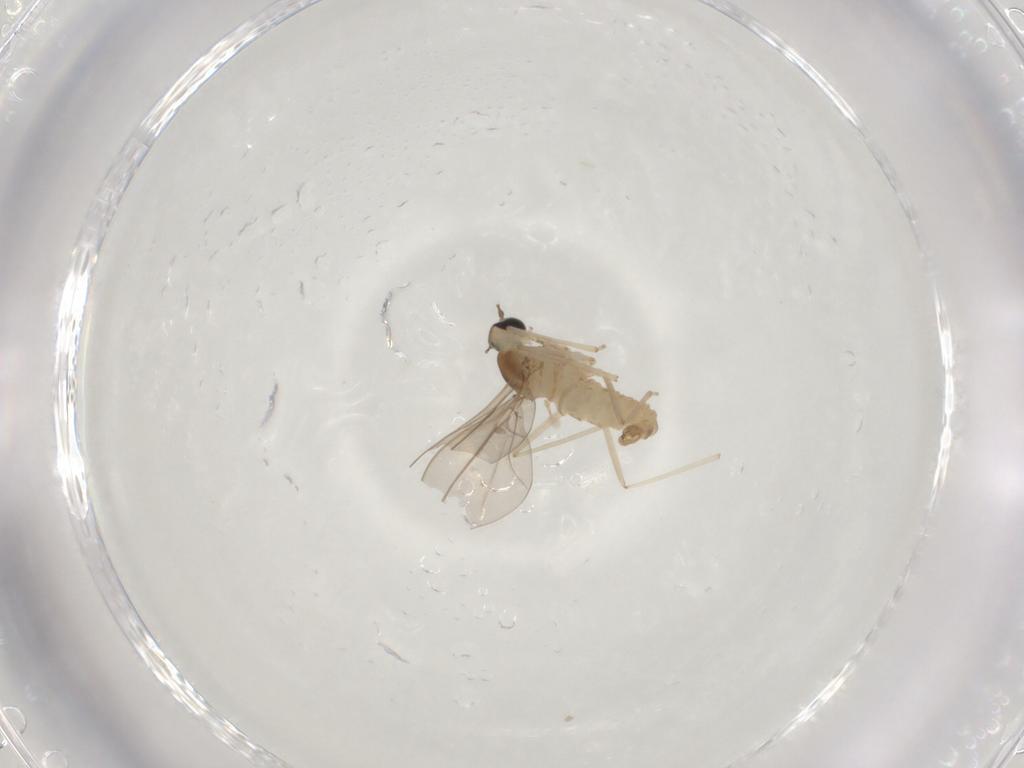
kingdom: Animalia
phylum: Arthropoda
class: Insecta
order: Diptera
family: Cecidomyiidae
